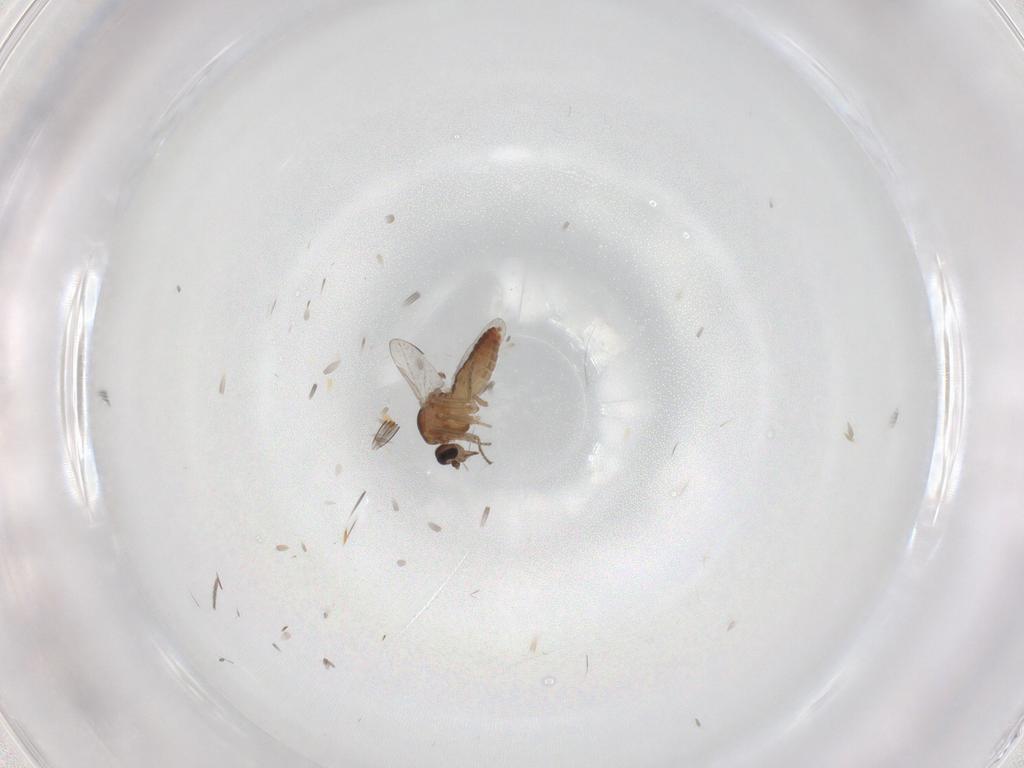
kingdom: Animalia
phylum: Arthropoda
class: Insecta
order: Diptera
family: Ceratopogonidae
